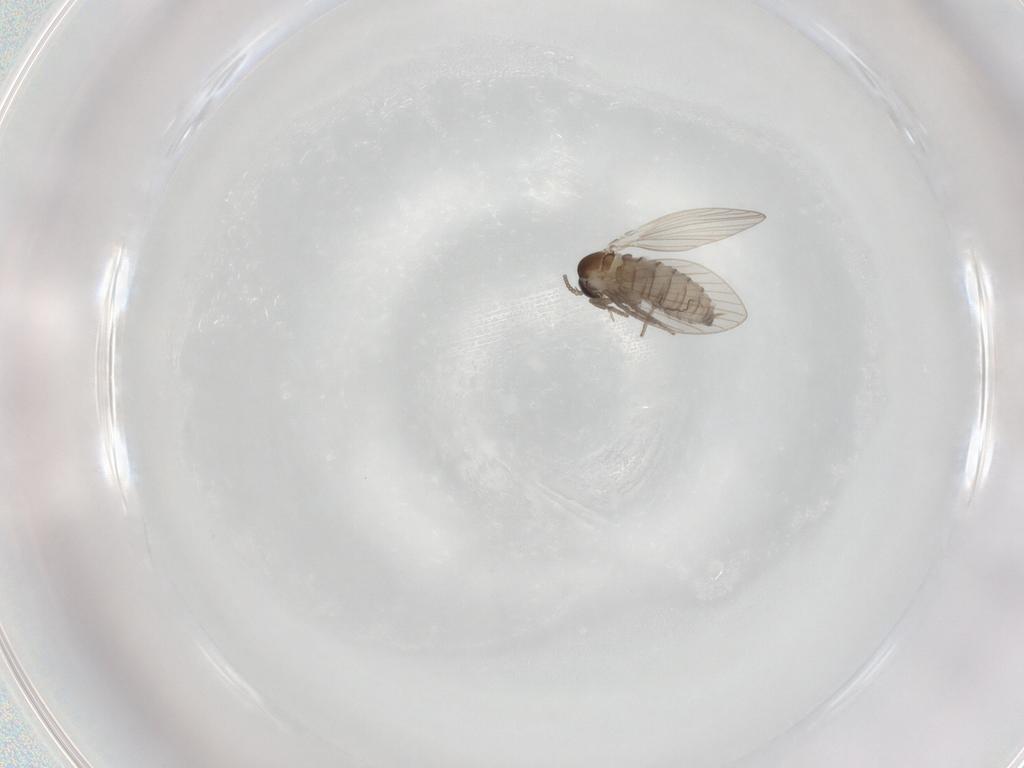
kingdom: Animalia
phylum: Arthropoda
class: Insecta
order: Diptera
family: Psychodidae
